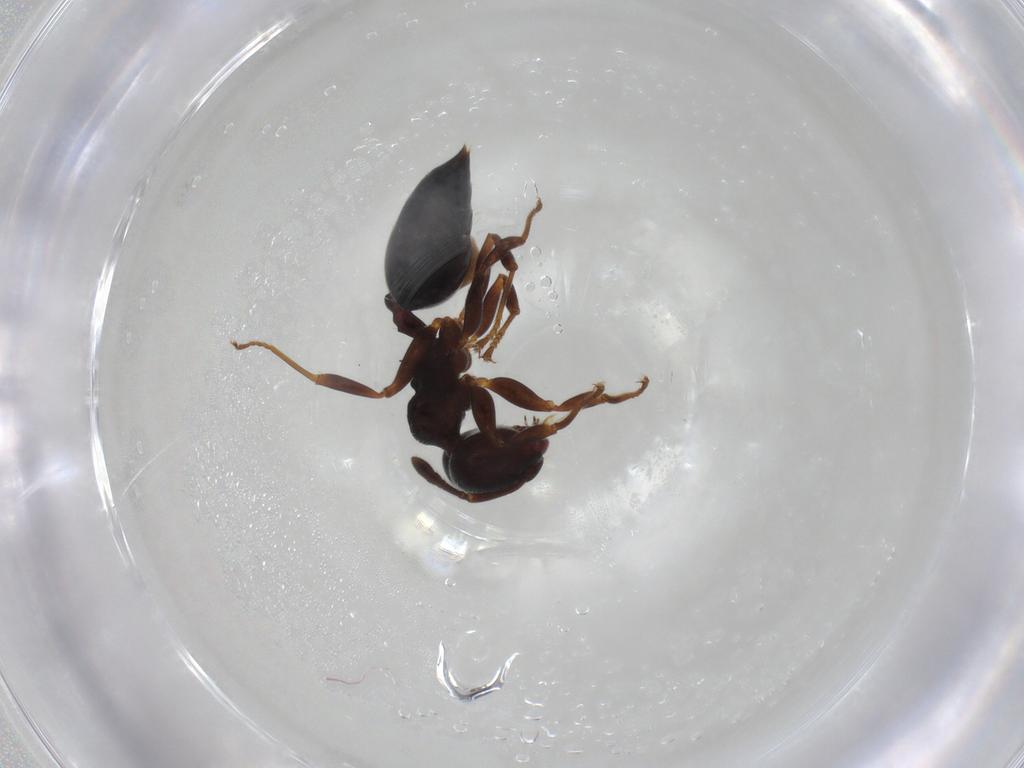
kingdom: Animalia
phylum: Arthropoda
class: Insecta
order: Hymenoptera
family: Formicidae
